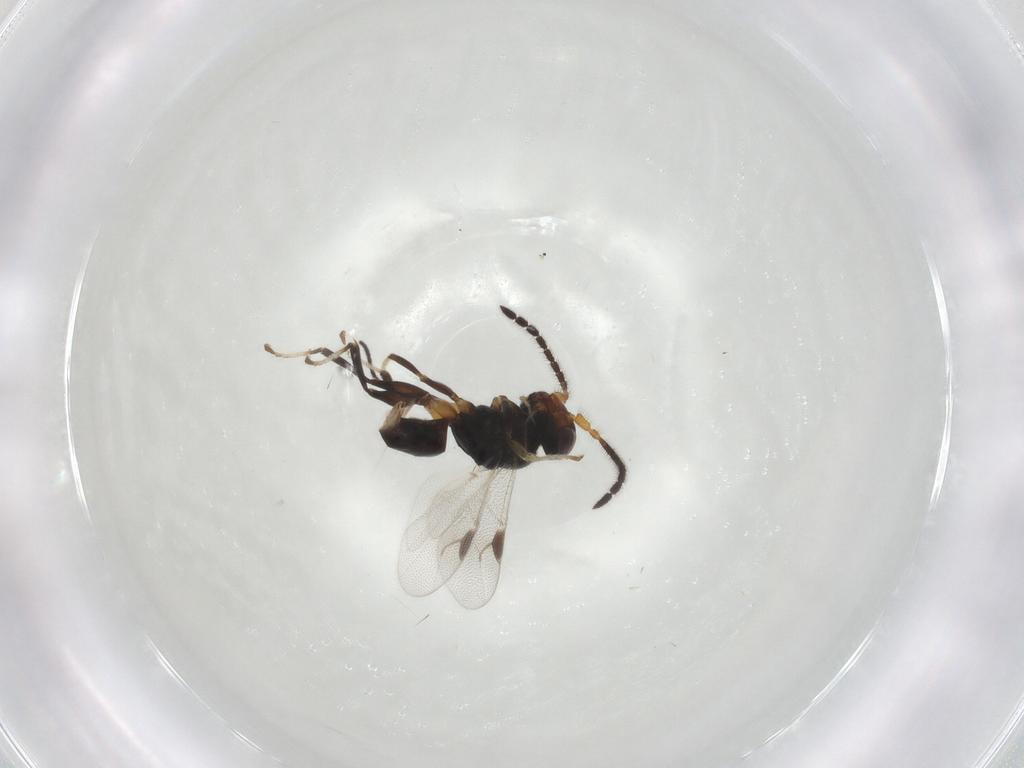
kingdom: Animalia
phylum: Arthropoda
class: Insecta
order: Hymenoptera
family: Dryinidae
